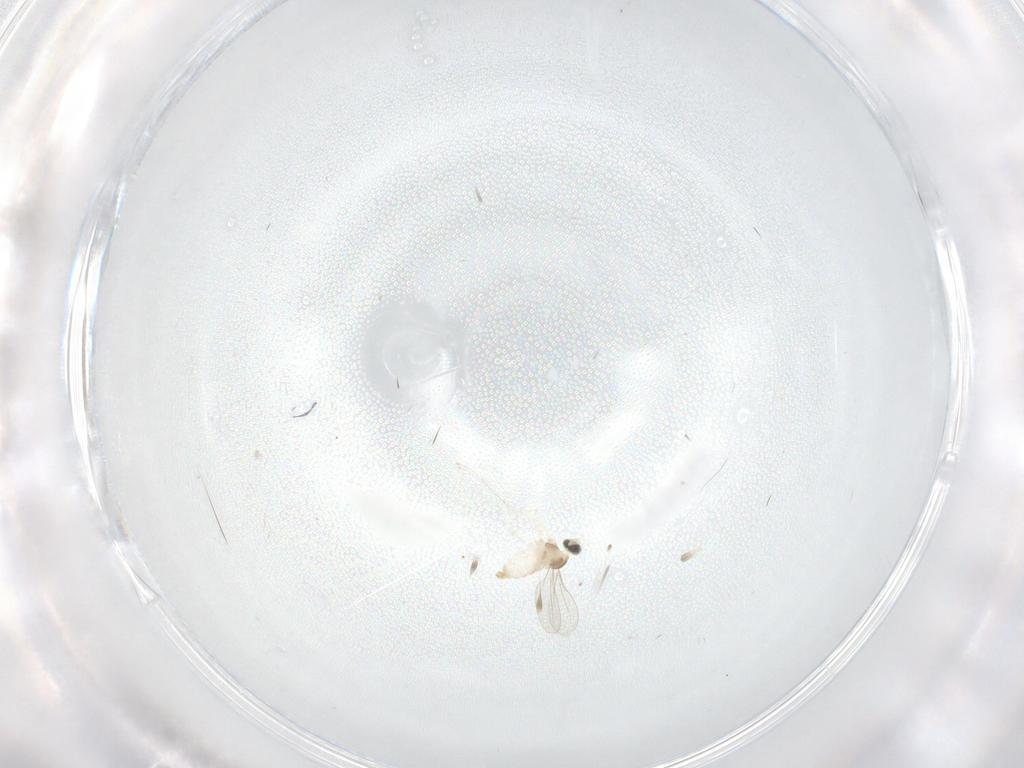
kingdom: Animalia
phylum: Arthropoda
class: Insecta
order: Diptera
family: Cecidomyiidae
